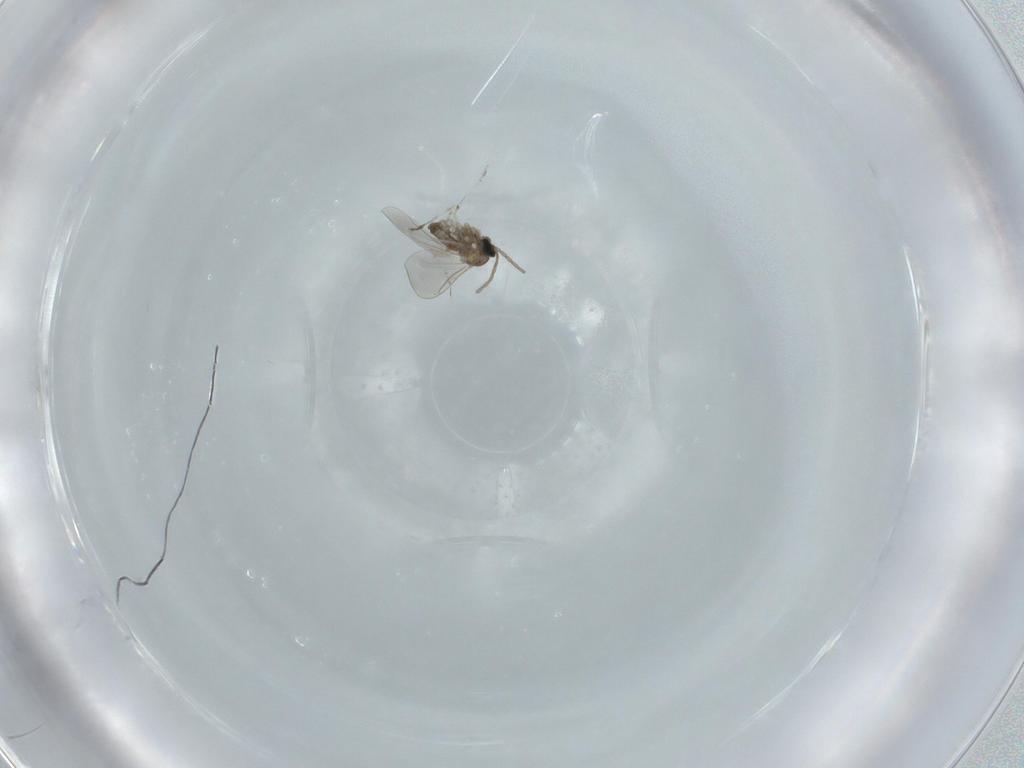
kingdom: Animalia
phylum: Arthropoda
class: Insecta
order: Diptera
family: Cecidomyiidae
